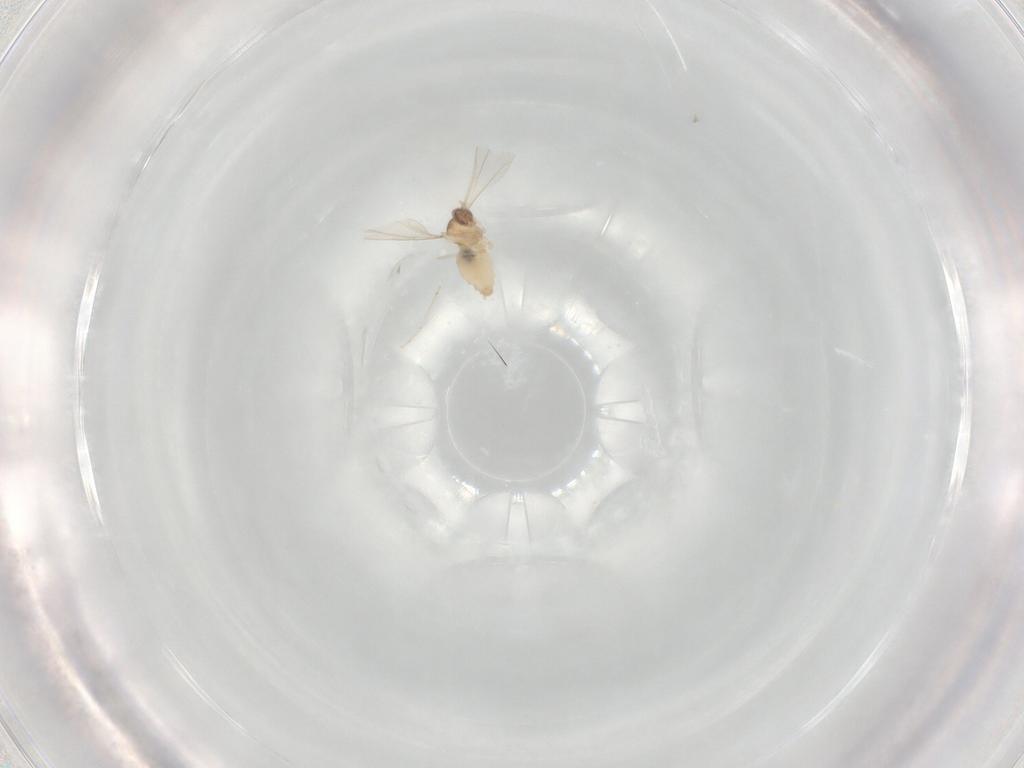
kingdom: Animalia
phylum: Arthropoda
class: Insecta
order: Diptera
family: Cecidomyiidae
